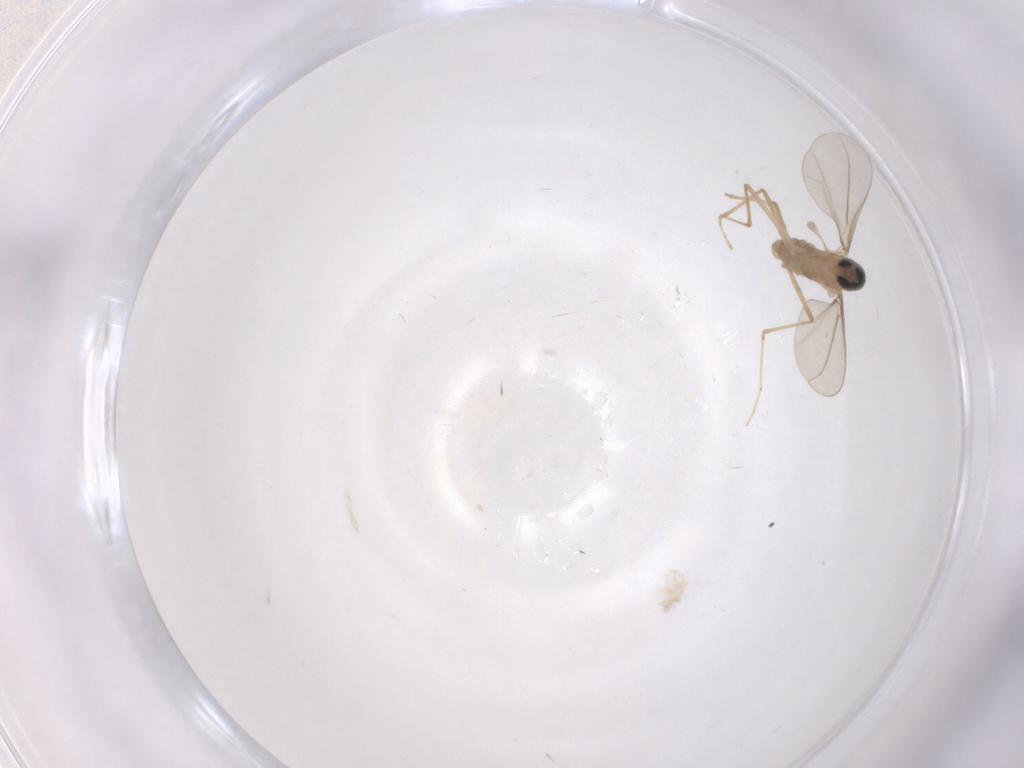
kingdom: Animalia
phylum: Arthropoda
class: Insecta
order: Diptera
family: Cecidomyiidae
